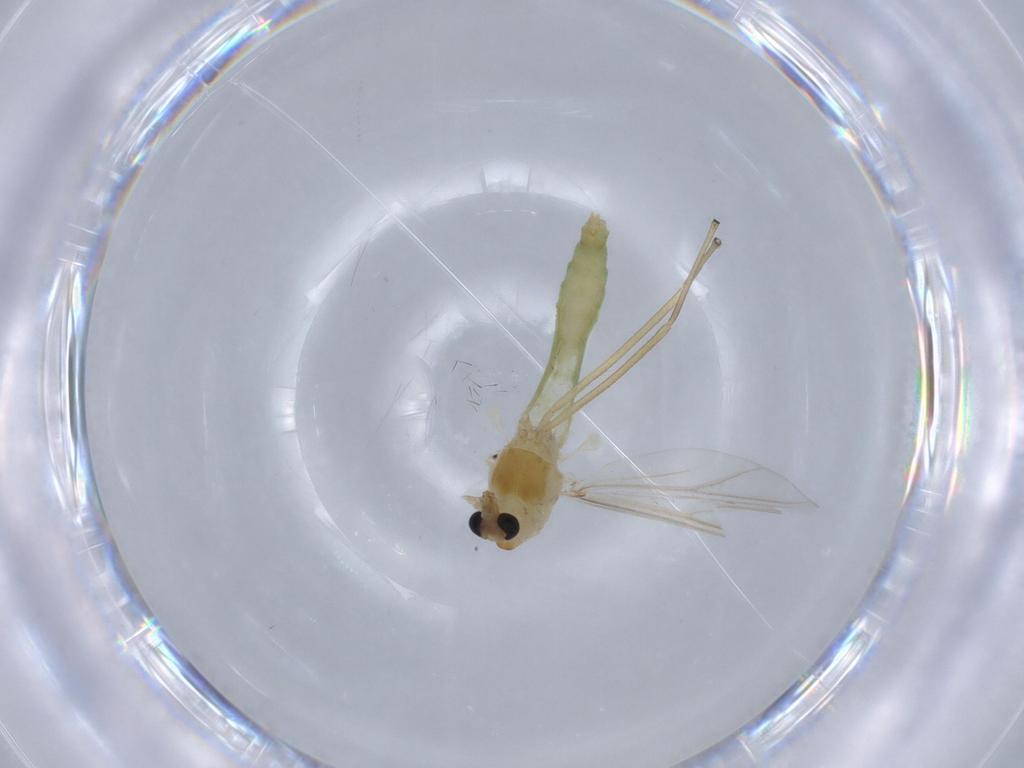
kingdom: Animalia
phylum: Arthropoda
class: Insecta
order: Diptera
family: Chironomidae
